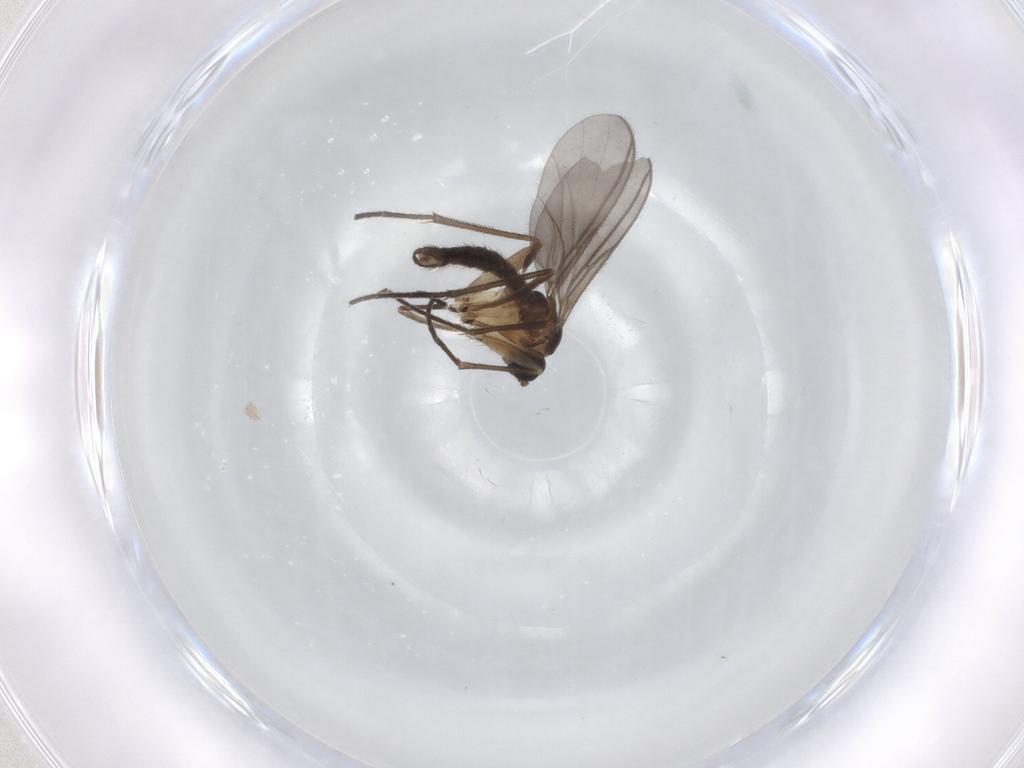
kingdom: Animalia
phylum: Arthropoda
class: Insecta
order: Diptera
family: Sciaridae
